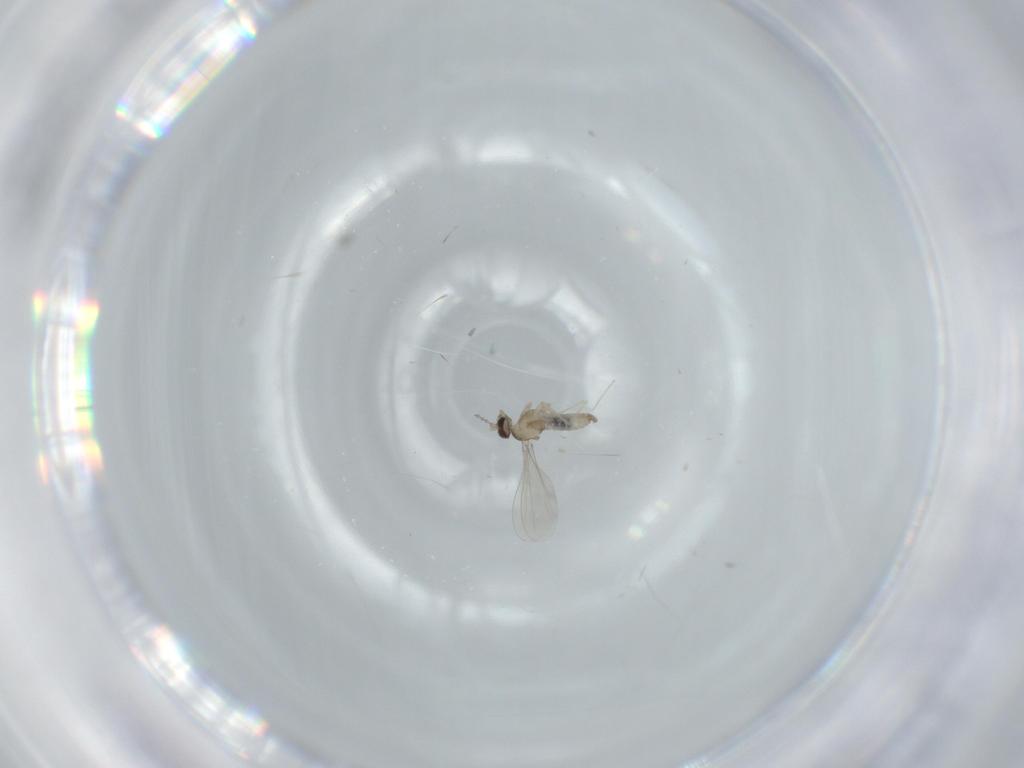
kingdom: Animalia
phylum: Arthropoda
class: Insecta
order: Diptera
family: Cecidomyiidae
